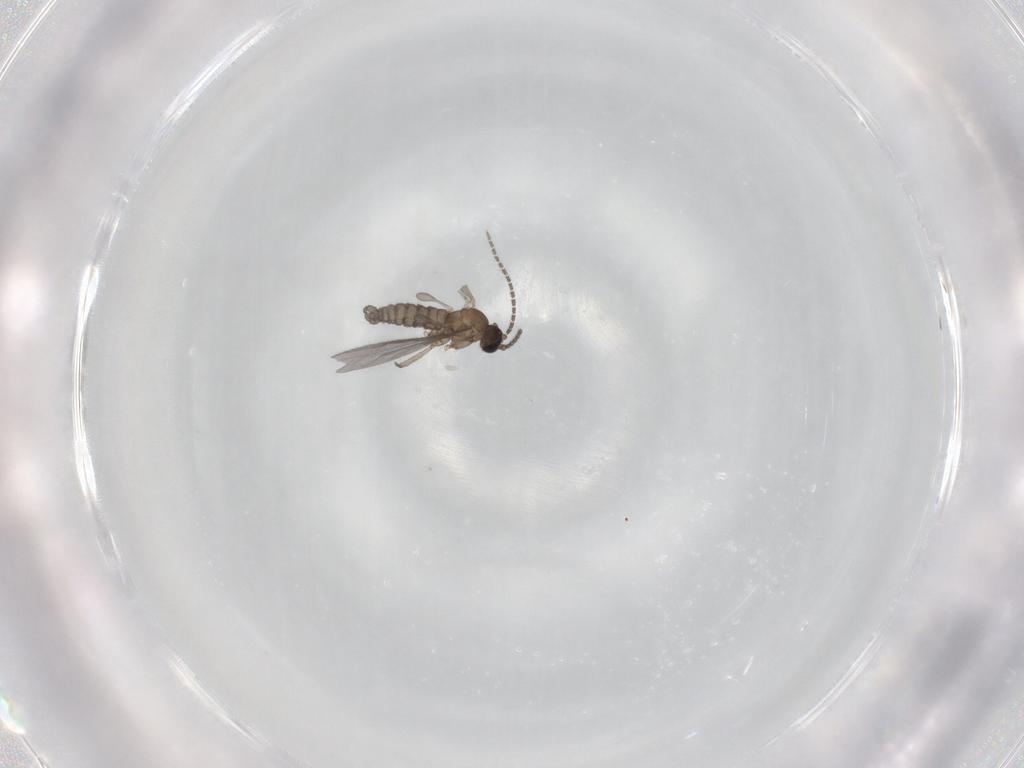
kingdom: Animalia
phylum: Arthropoda
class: Insecta
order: Diptera
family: Sciaridae
